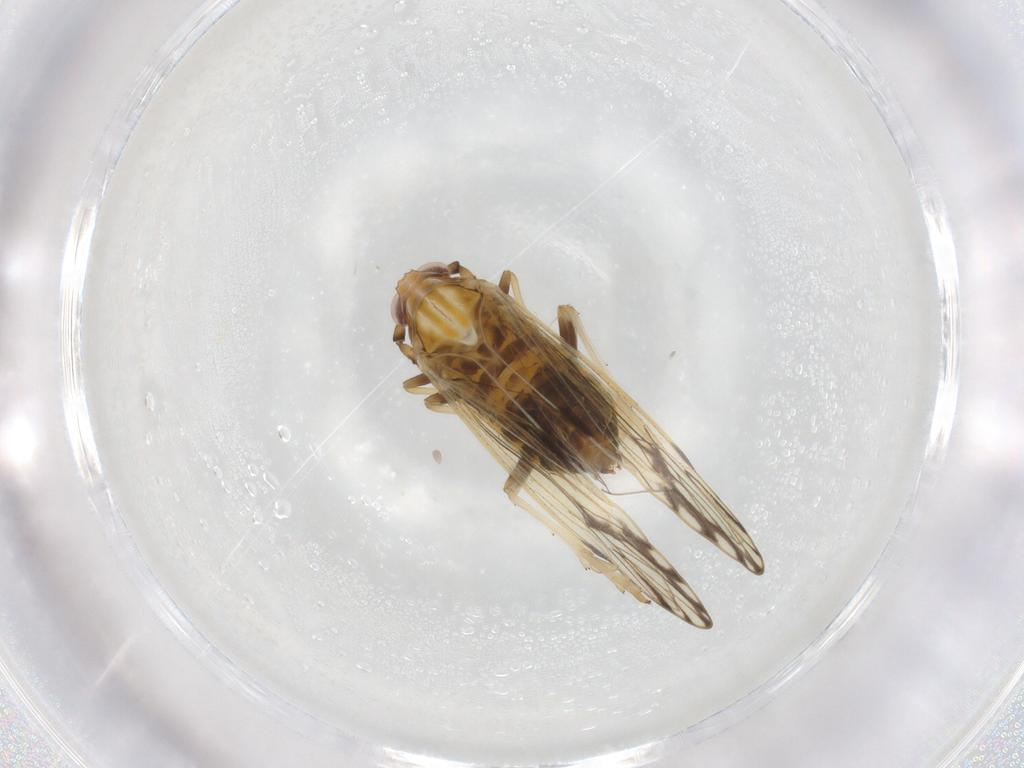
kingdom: Animalia
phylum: Arthropoda
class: Insecta
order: Hemiptera
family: Delphacidae
